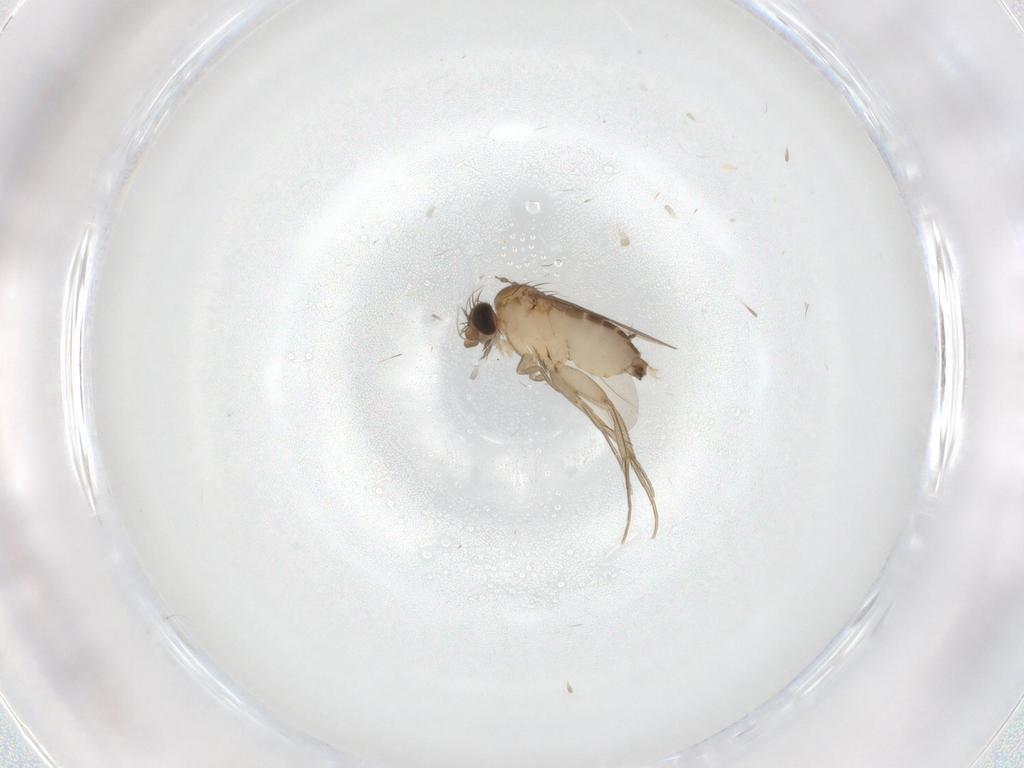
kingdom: Animalia
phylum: Arthropoda
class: Insecta
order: Diptera
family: Phoridae
